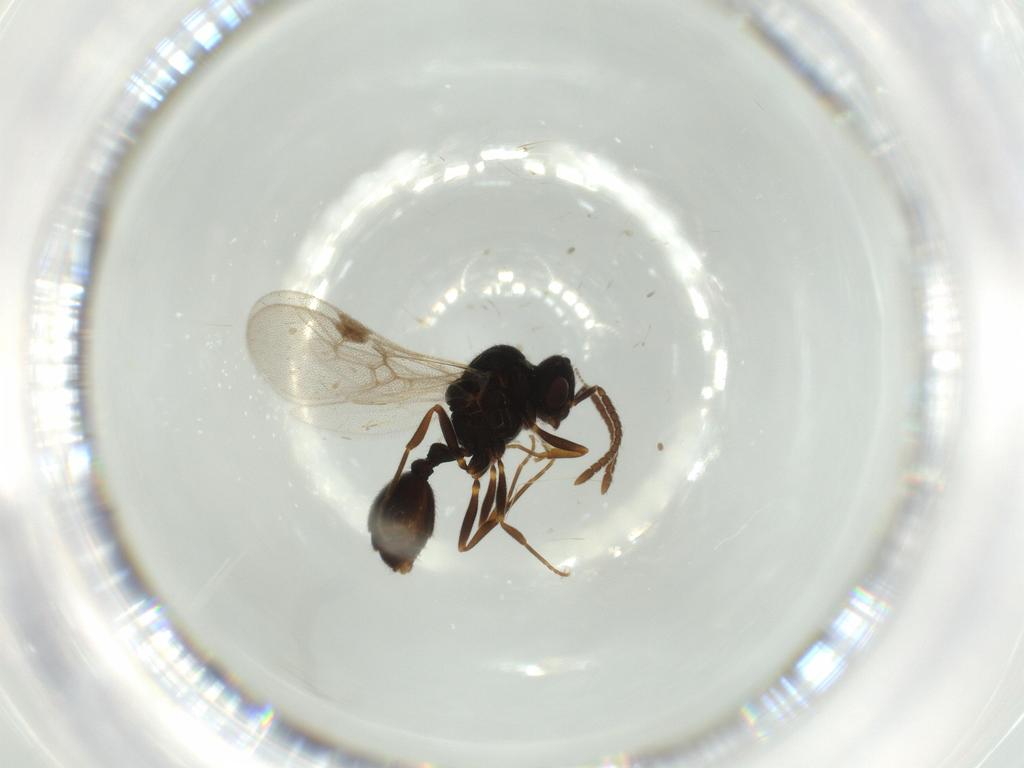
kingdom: Animalia
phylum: Arthropoda
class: Insecta
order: Hymenoptera
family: Formicidae
